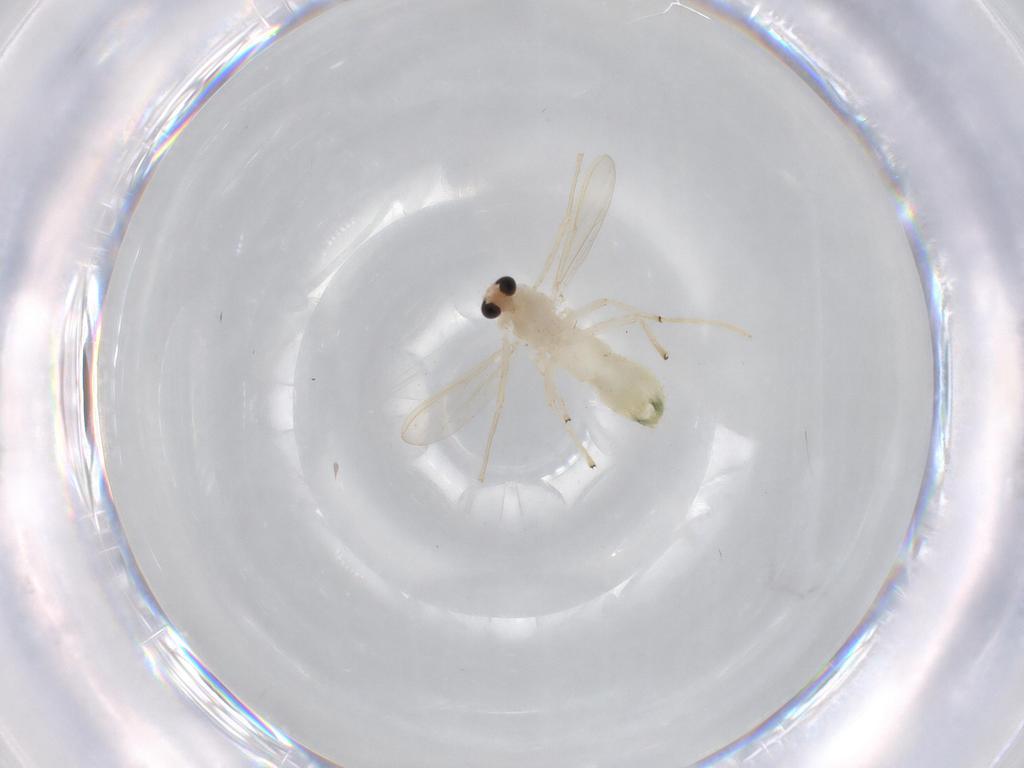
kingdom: Animalia
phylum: Arthropoda
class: Insecta
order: Diptera
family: Chironomidae
